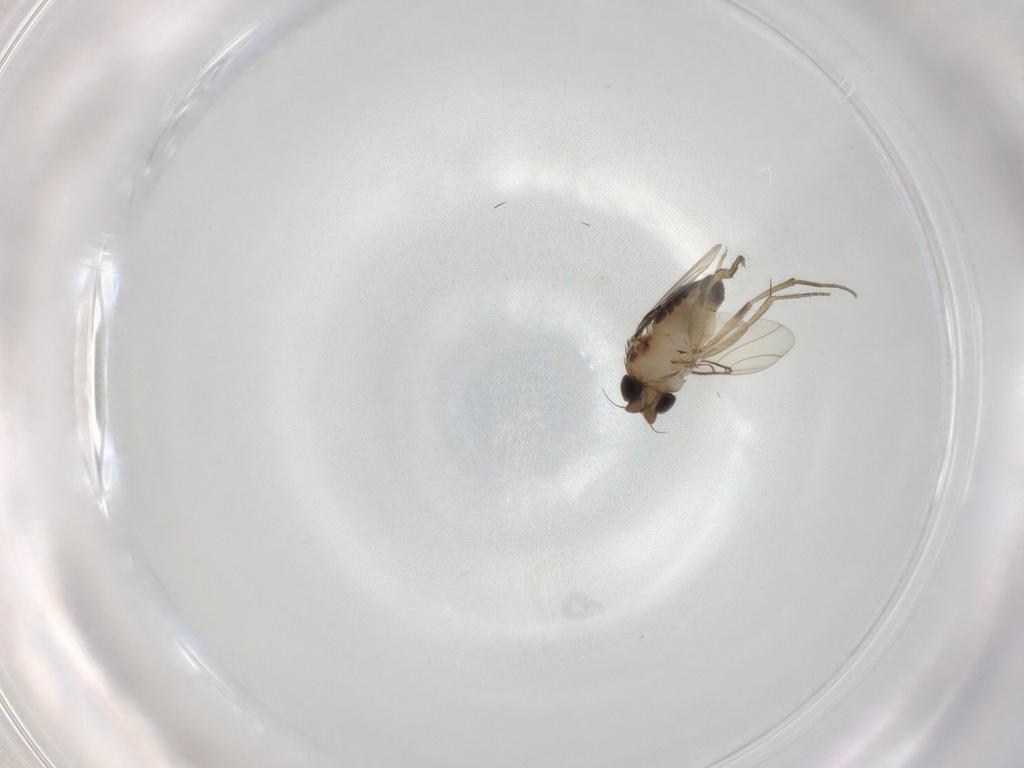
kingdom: Animalia
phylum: Arthropoda
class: Insecta
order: Diptera
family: Phoridae
